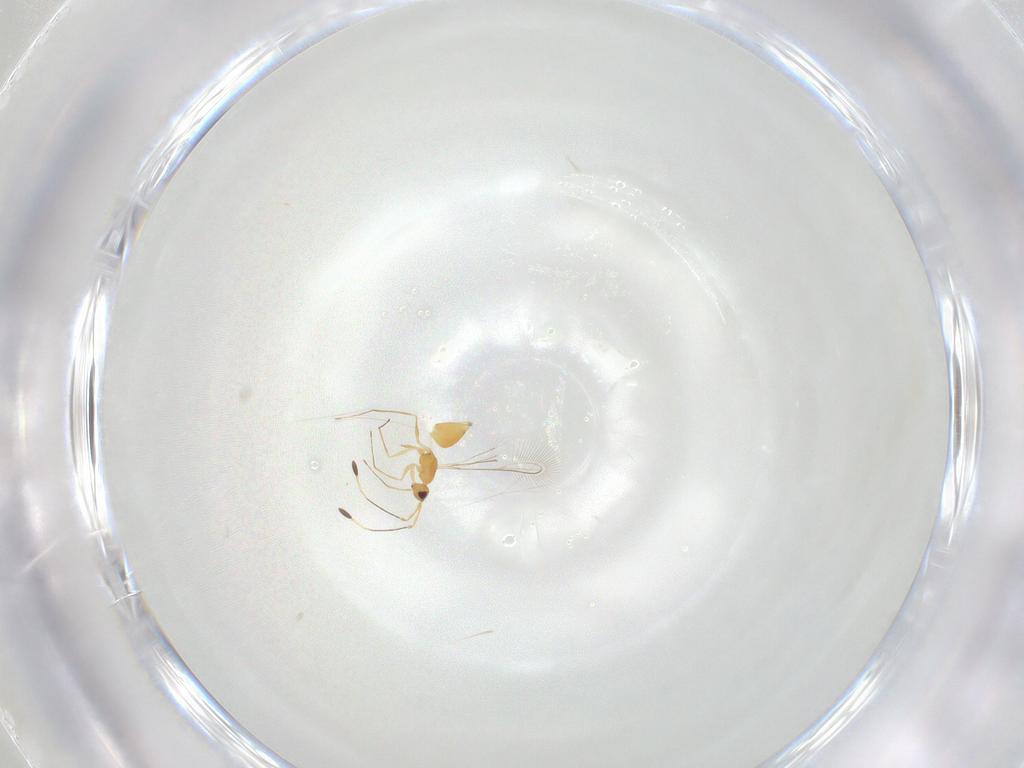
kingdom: Animalia
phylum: Arthropoda
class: Insecta
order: Hymenoptera
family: Mymaridae
